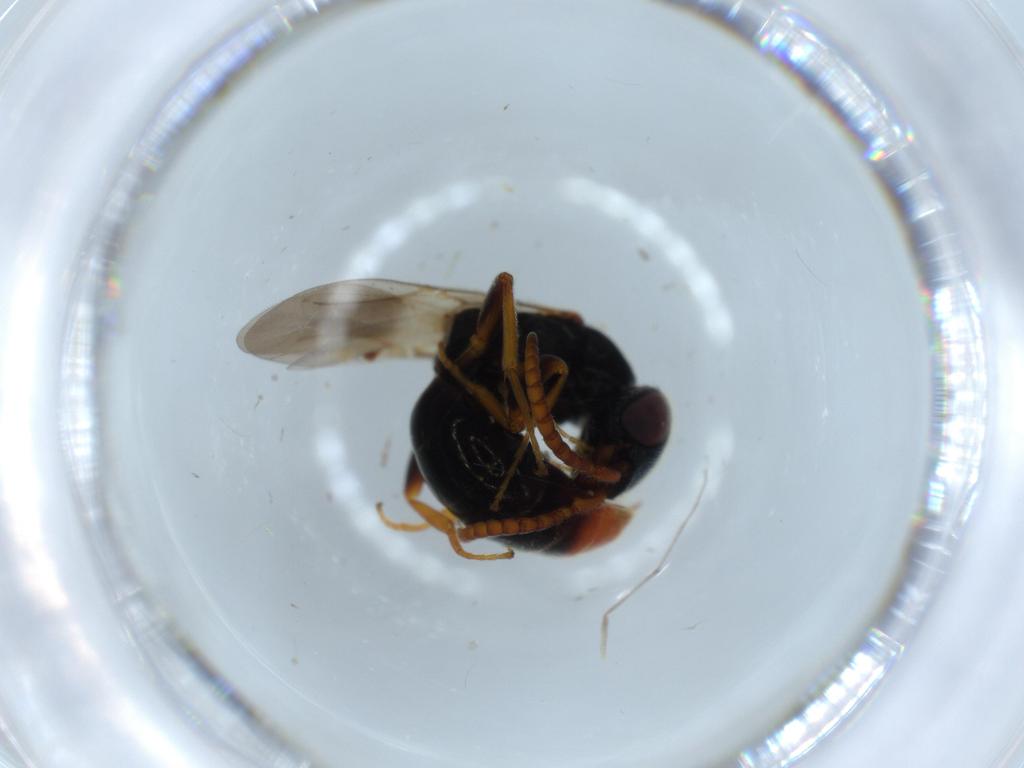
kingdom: Animalia
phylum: Arthropoda
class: Insecta
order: Hymenoptera
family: Bethylidae
